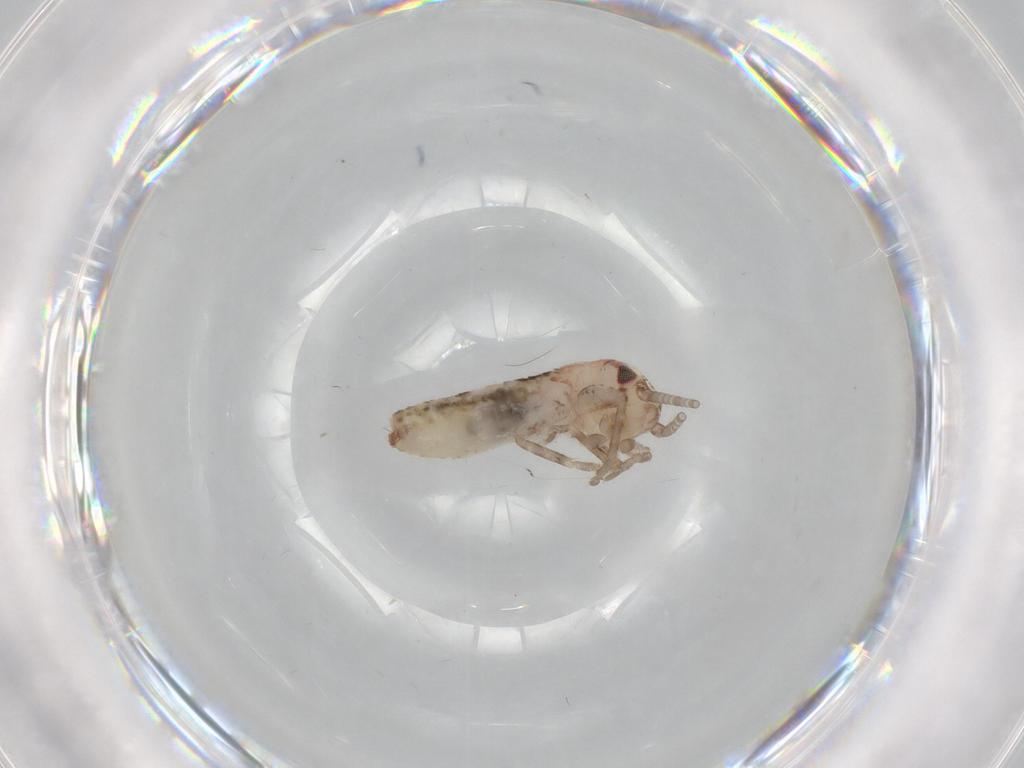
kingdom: Animalia
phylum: Arthropoda
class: Insecta
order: Orthoptera
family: Mogoplistidae
